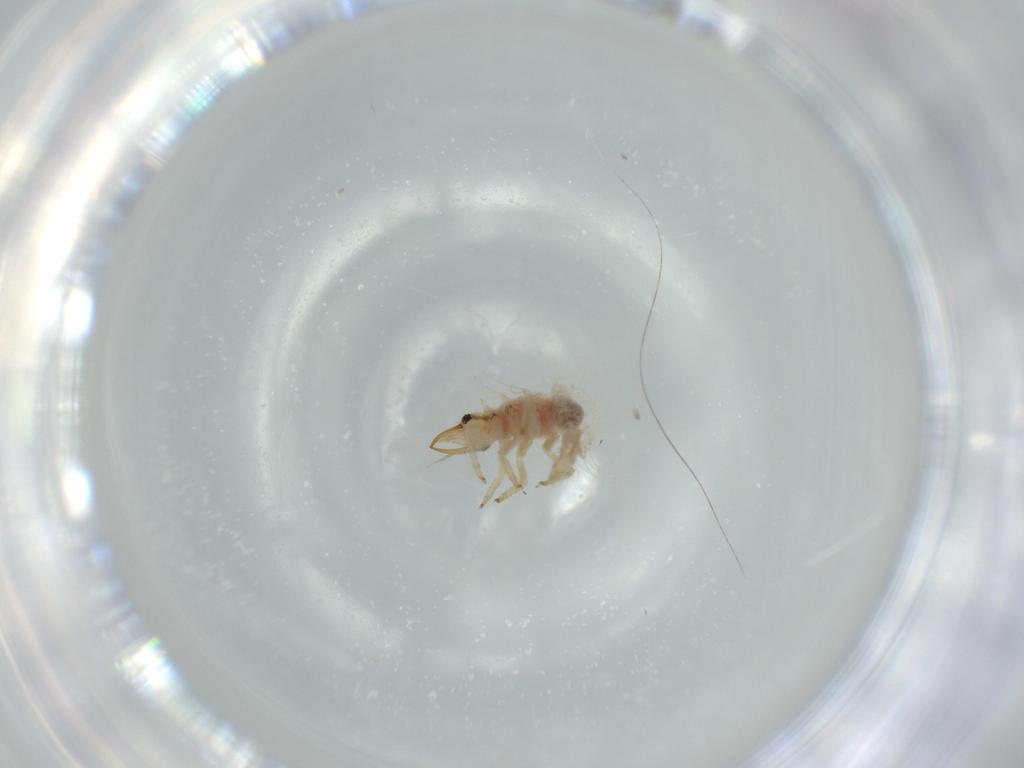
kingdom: Animalia
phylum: Arthropoda
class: Insecta
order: Neuroptera
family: Chrysopidae
